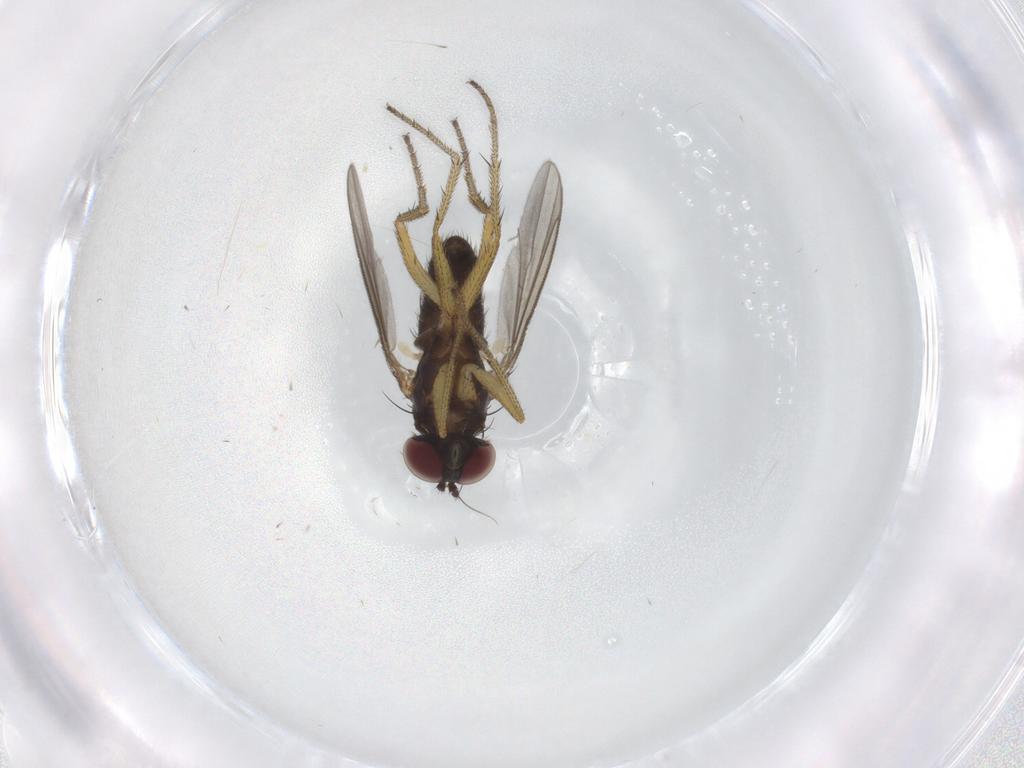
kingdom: Animalia
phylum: Arthropoda
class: Insecta
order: Diptera
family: Dolichopodidae
